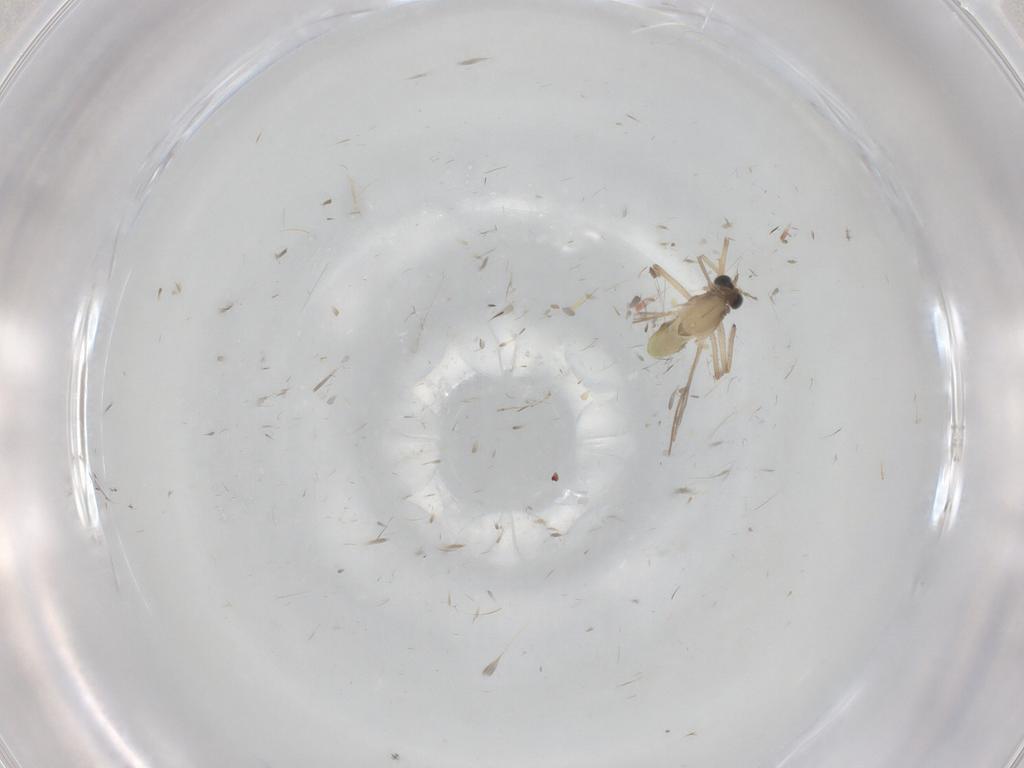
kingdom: Animalia
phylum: Arthropoda
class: Insecta
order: Diptera
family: Chironomidae
